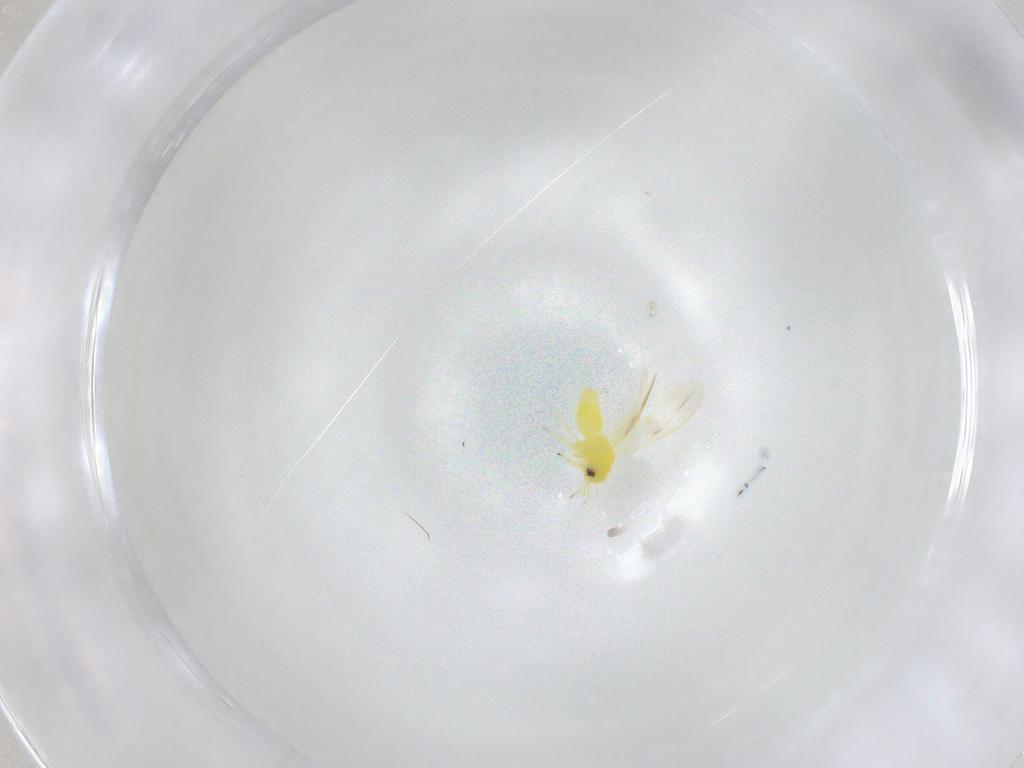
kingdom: Animalia
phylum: Arthropoda
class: Insecta
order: Hemiptera
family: Aleyrodidae
